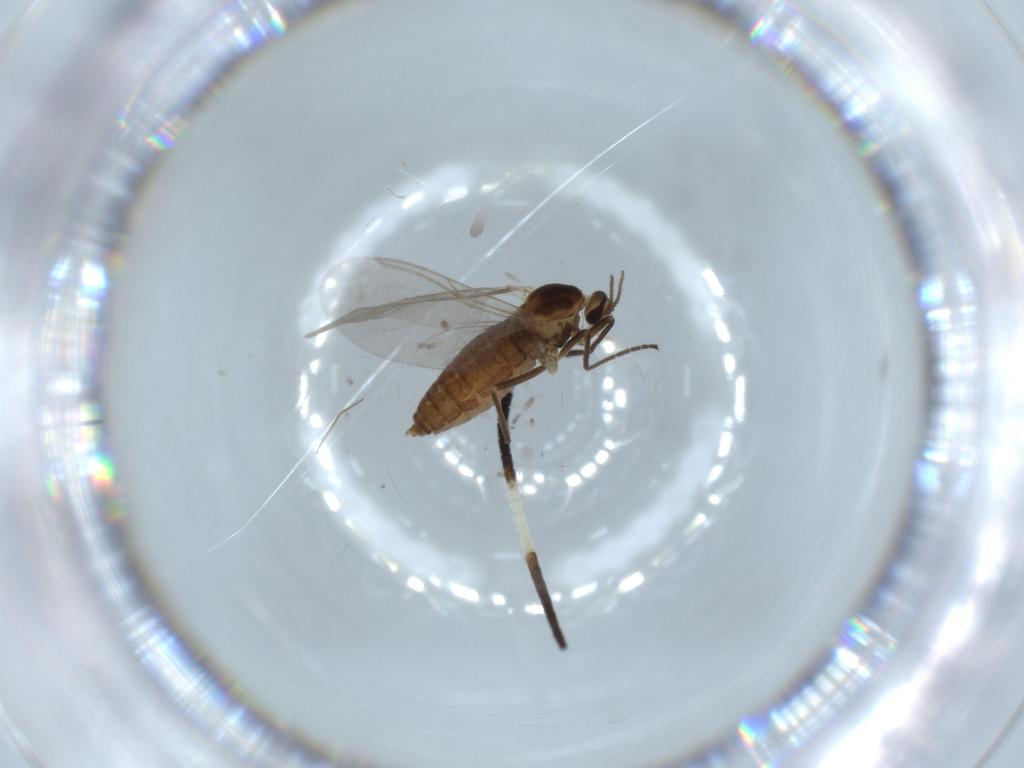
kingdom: Animalia
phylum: Arthropoda
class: Insecta
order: Diptera
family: Cecidomyiidae
